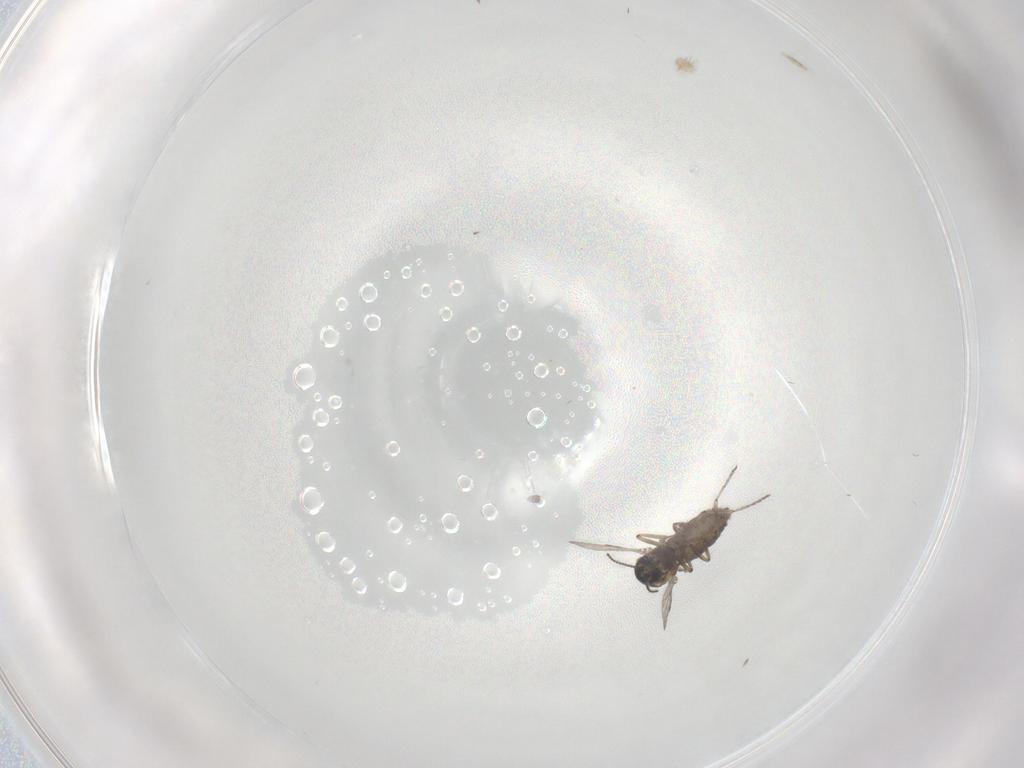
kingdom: Animalia
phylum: Arthropoda
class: Insecta
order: Diptera
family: Ceratopogonidae
